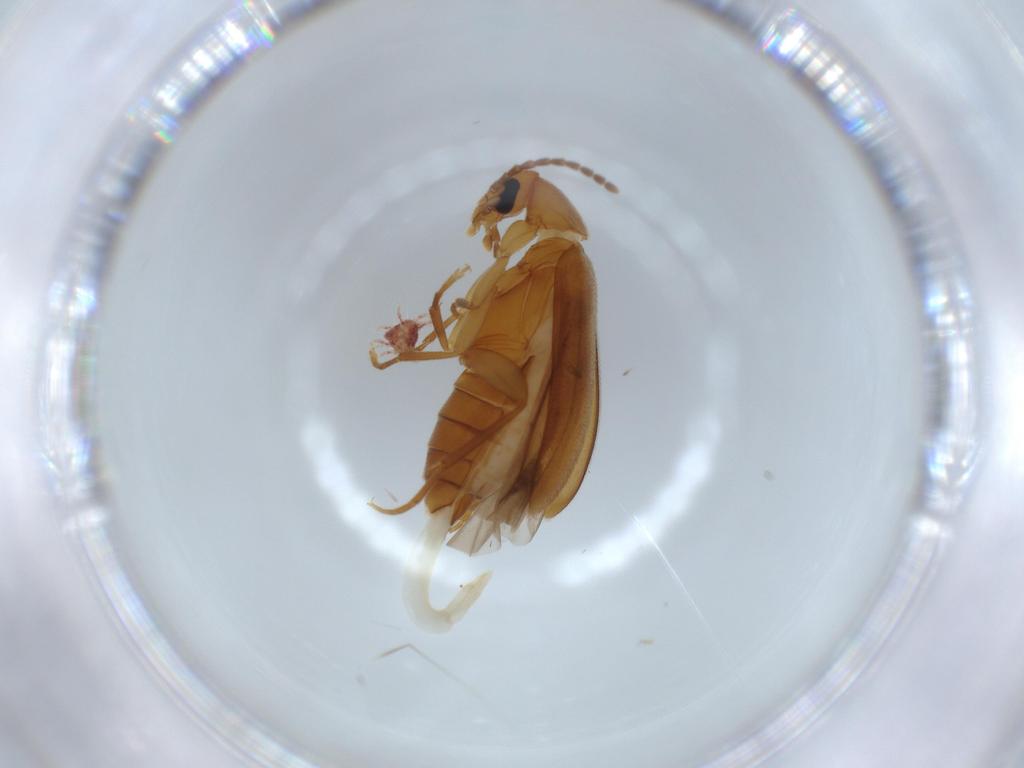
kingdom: Animalia
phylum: Arthropoda
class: Insecta
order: Coleoptera
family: Scraptiidae
